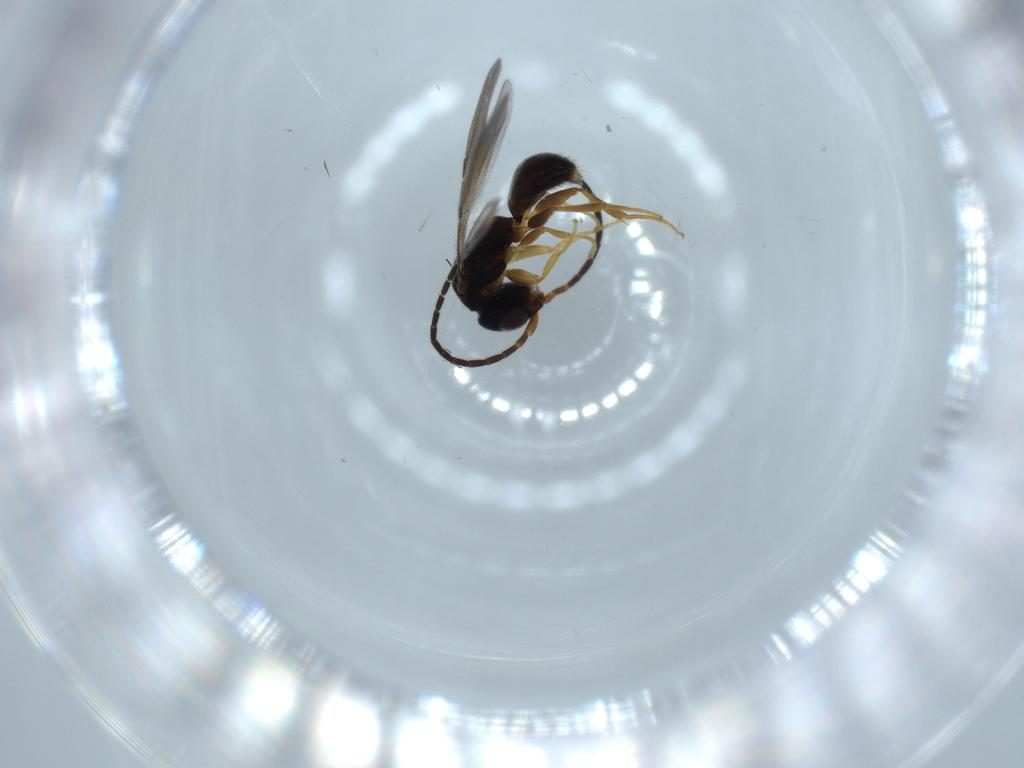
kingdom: Animalia
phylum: Arthropoda
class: Insecta
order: Hymenoptera
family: Bethylidae
